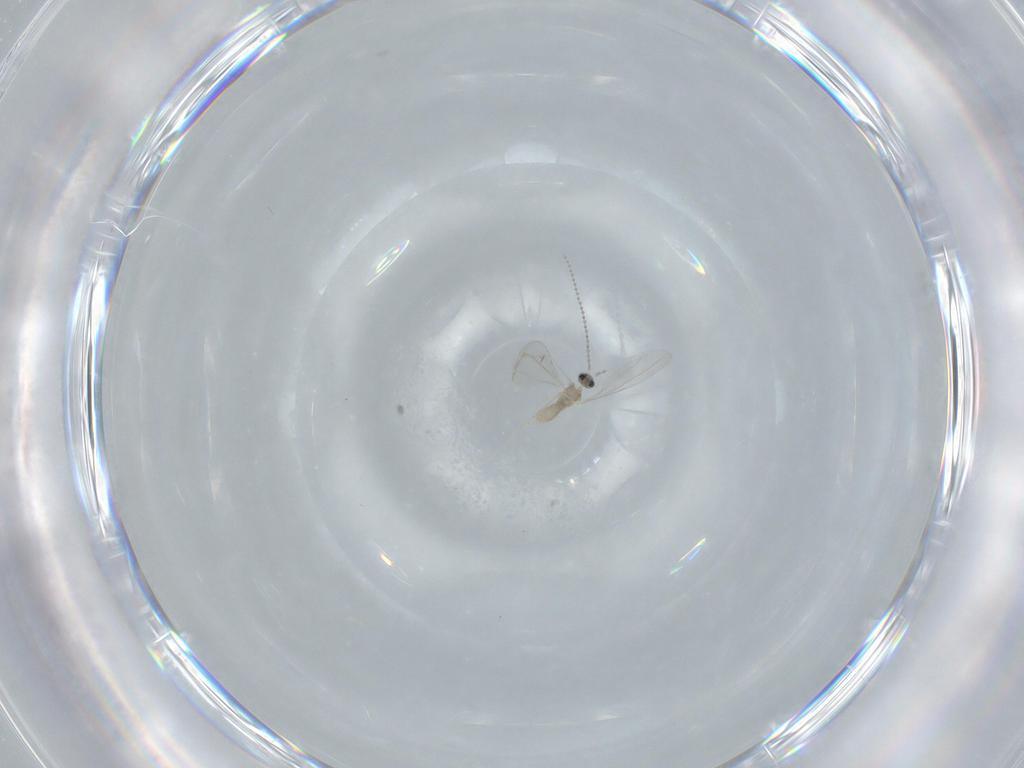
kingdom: Animalia
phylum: Arthropoda
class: Insecta
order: Diptera
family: Cecidomyiidae
